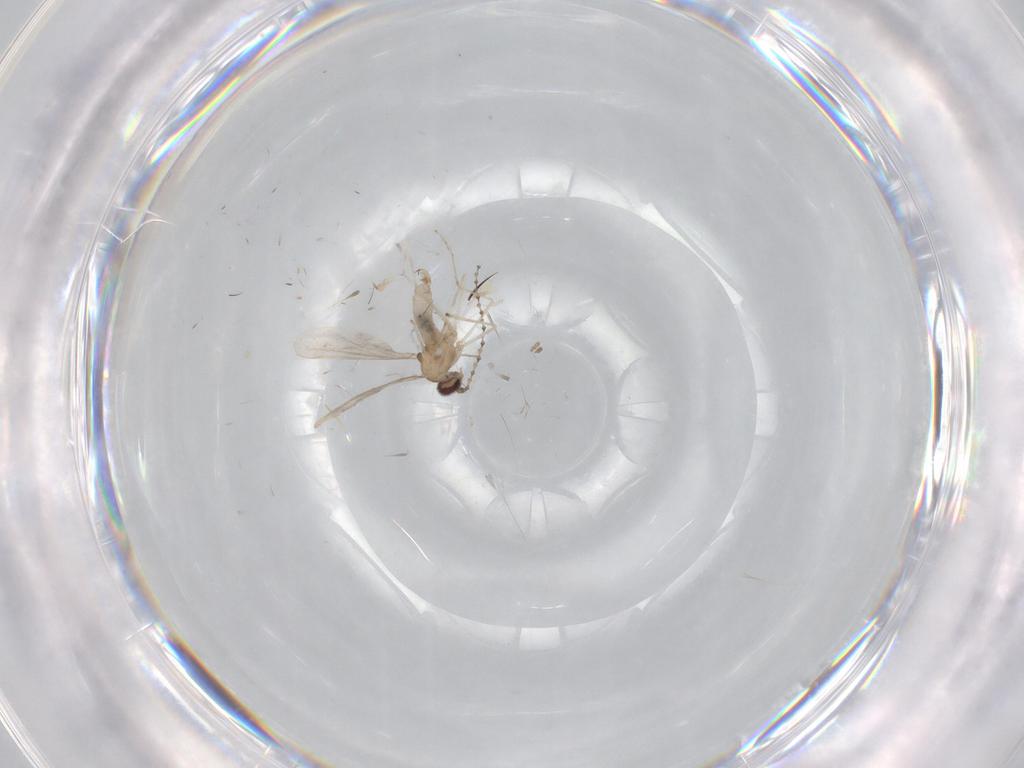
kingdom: Animalia
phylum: Arthropoda
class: Insecta
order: Diptera
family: Cecidomyiidae
